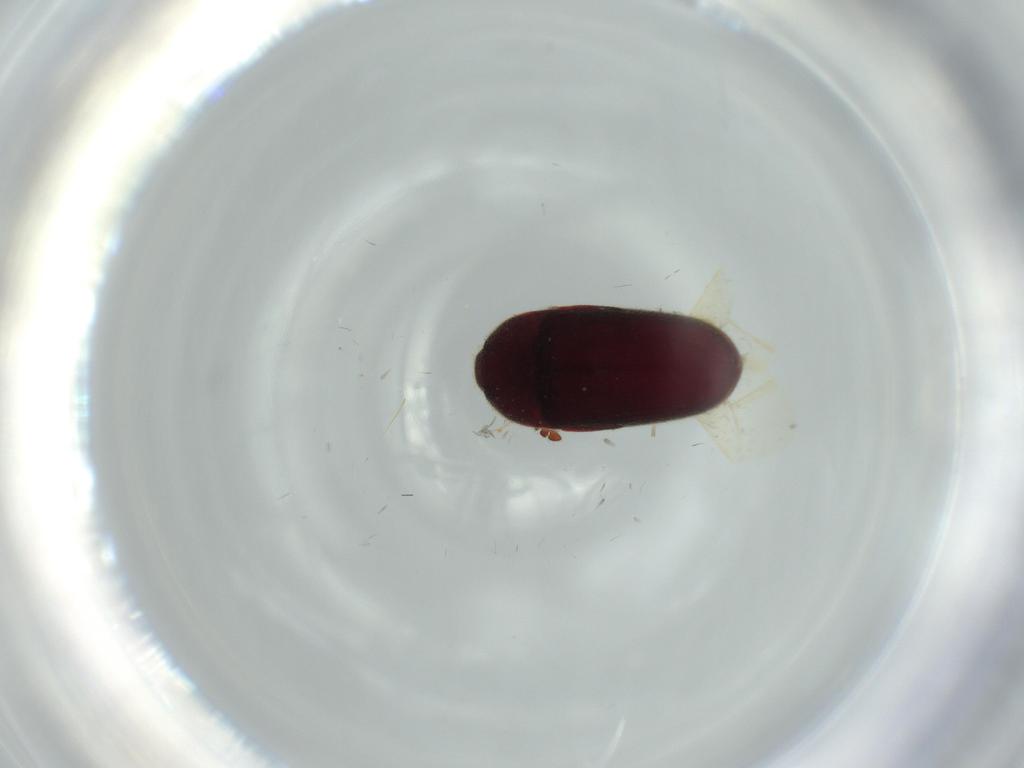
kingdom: Animalia
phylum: Arthropoda
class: Insecta
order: Coleoptera
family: Throscidae
